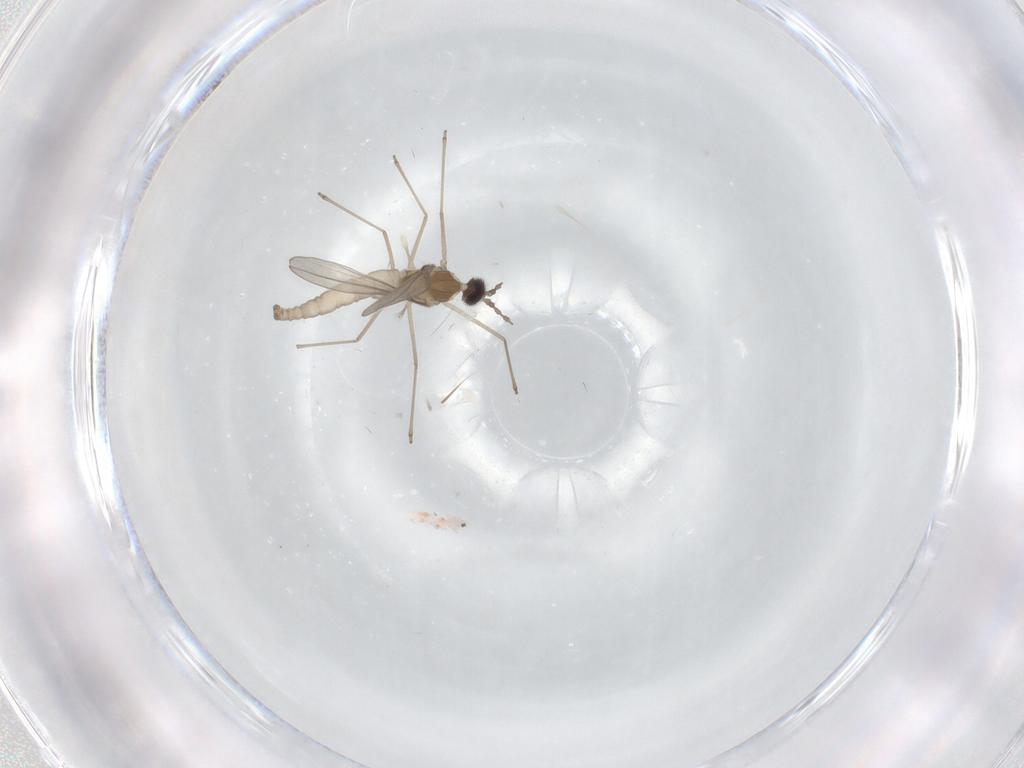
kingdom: Animalia
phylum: Arthropoda
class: Insecta
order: Diptera
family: Cecidomyiidae
